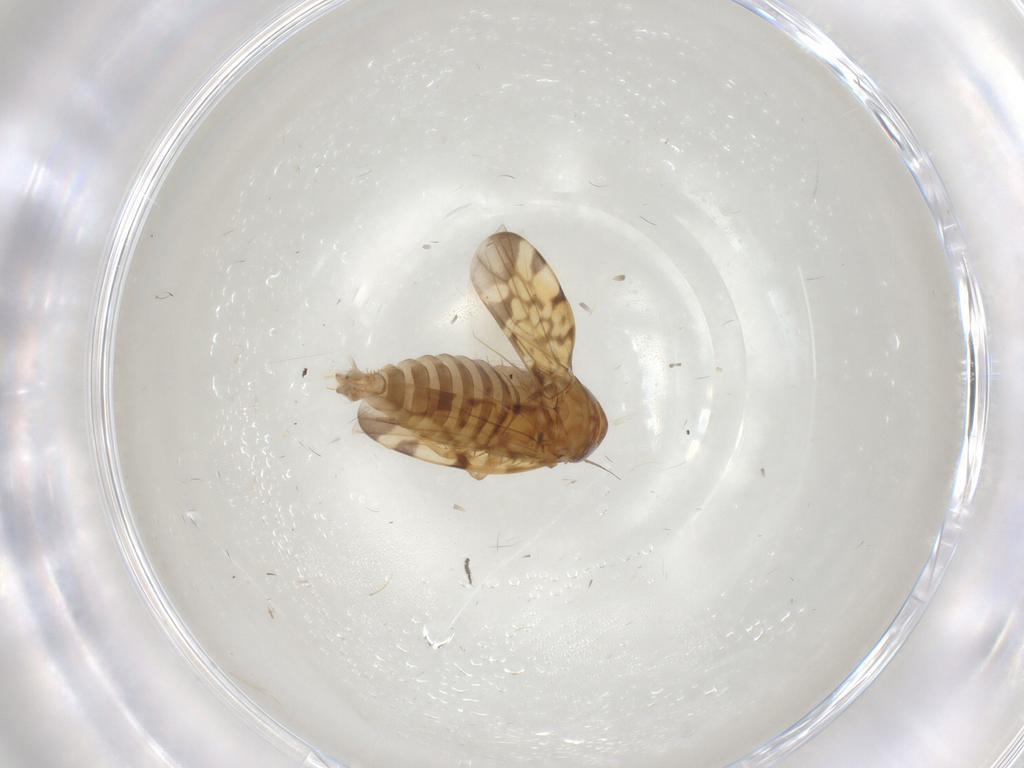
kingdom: Animalia
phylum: Arthropoda
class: Insecta
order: Hemiptera
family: Cicadellidae
